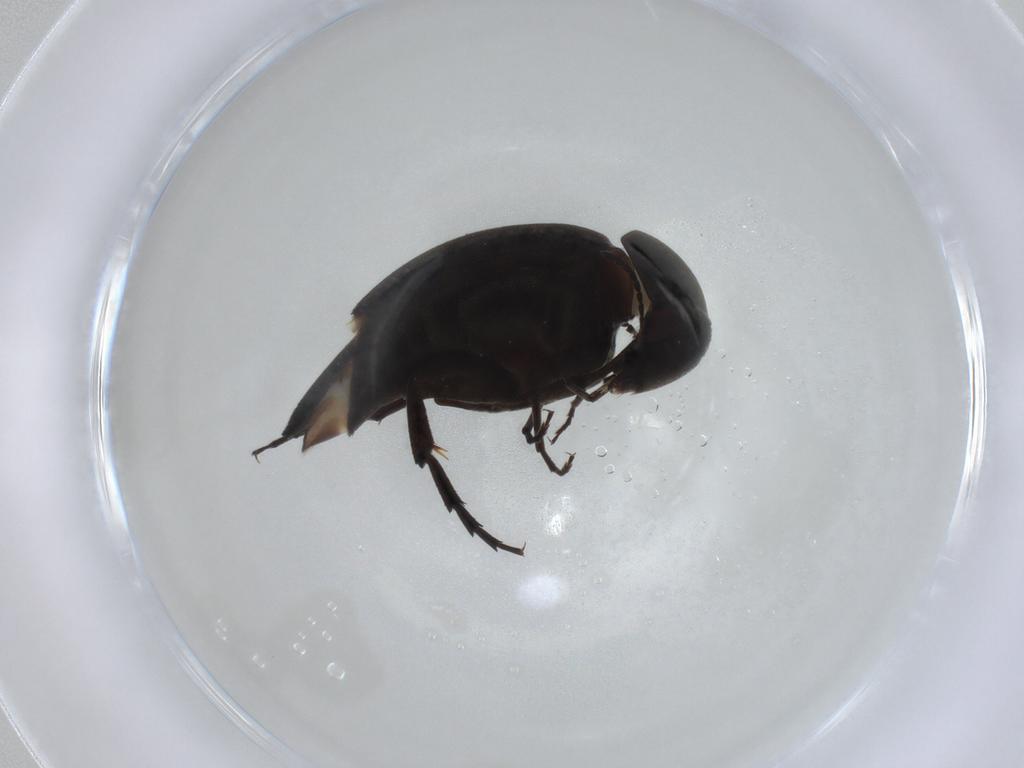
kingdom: Animalia
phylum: Arthropoda
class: Insecta
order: Coleoptera
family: Mordellidae
